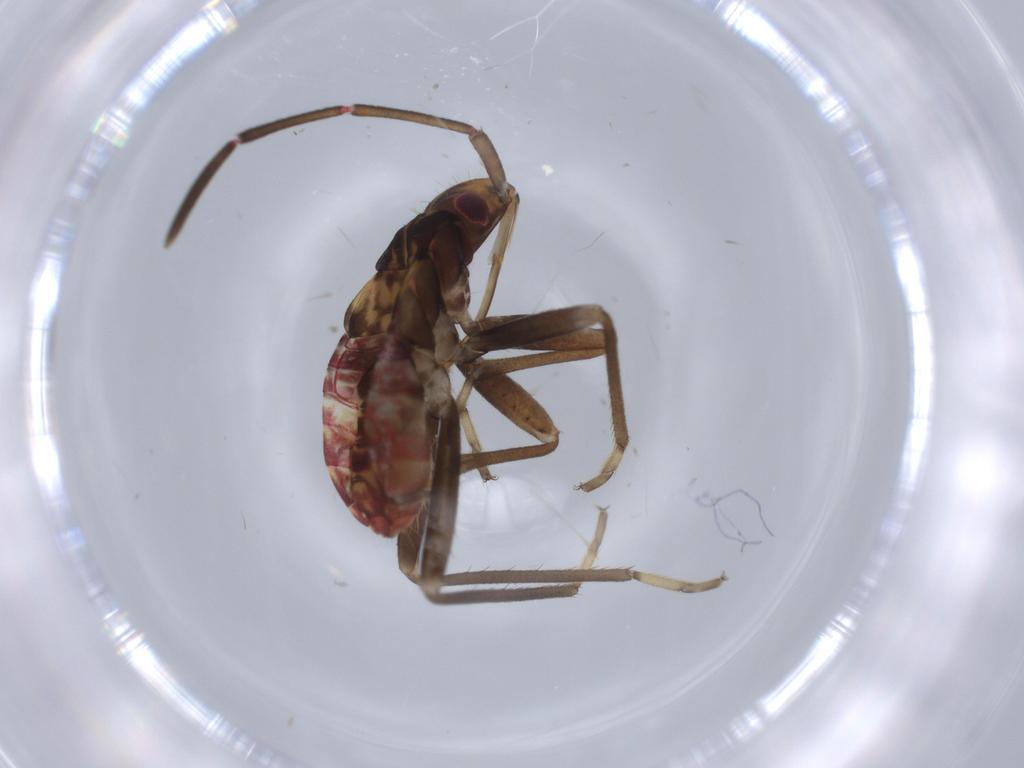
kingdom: Animalia
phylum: Arthropoda
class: Insecta
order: Hemiptera
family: Rhyparochromidae
